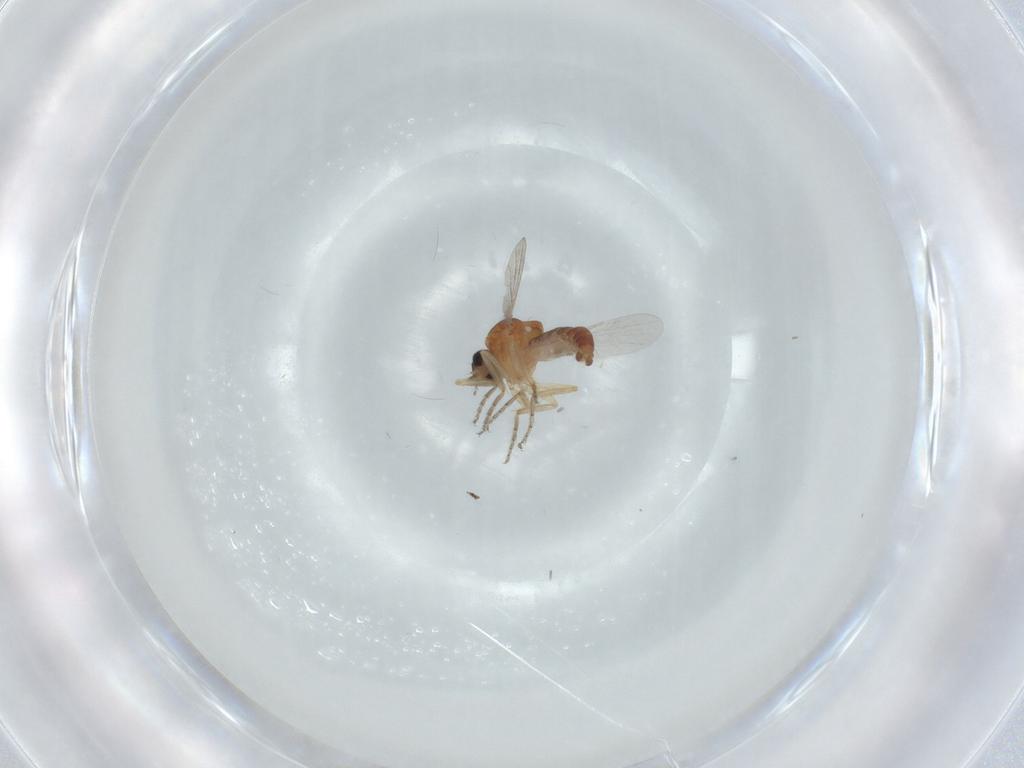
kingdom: Animalia
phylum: Arthropoda
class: Insecta
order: Diptera
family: Ceratopogonidae
